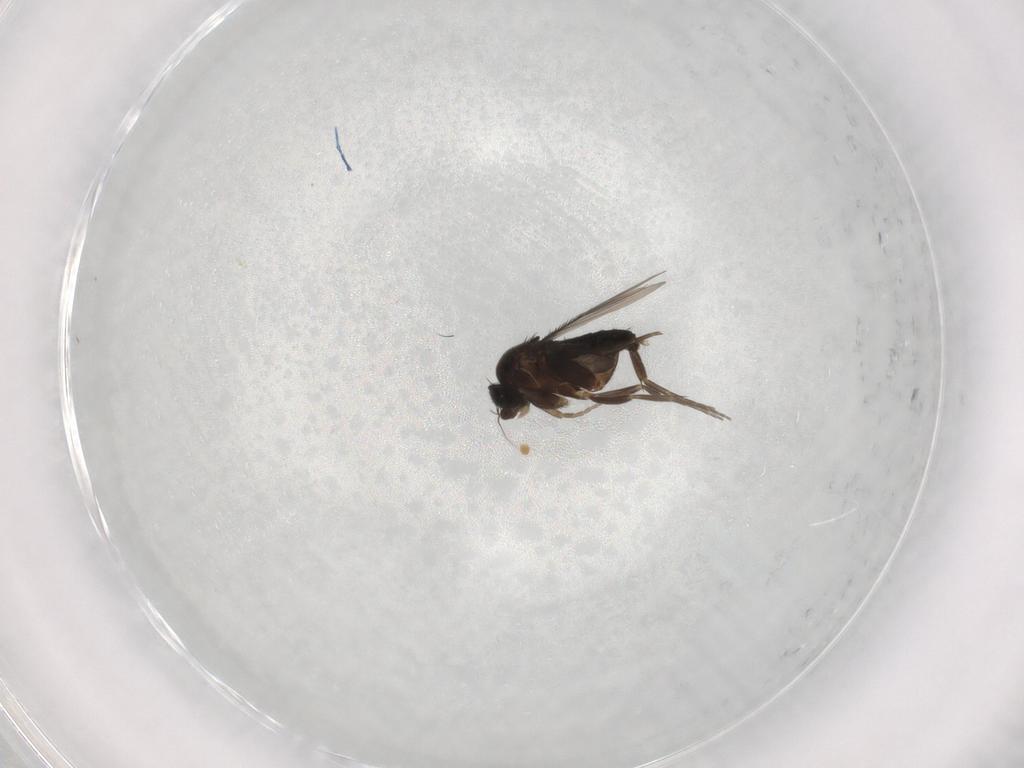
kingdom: Animalia
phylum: Arthropoda
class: Insecta
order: Diptera
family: Phoridae
